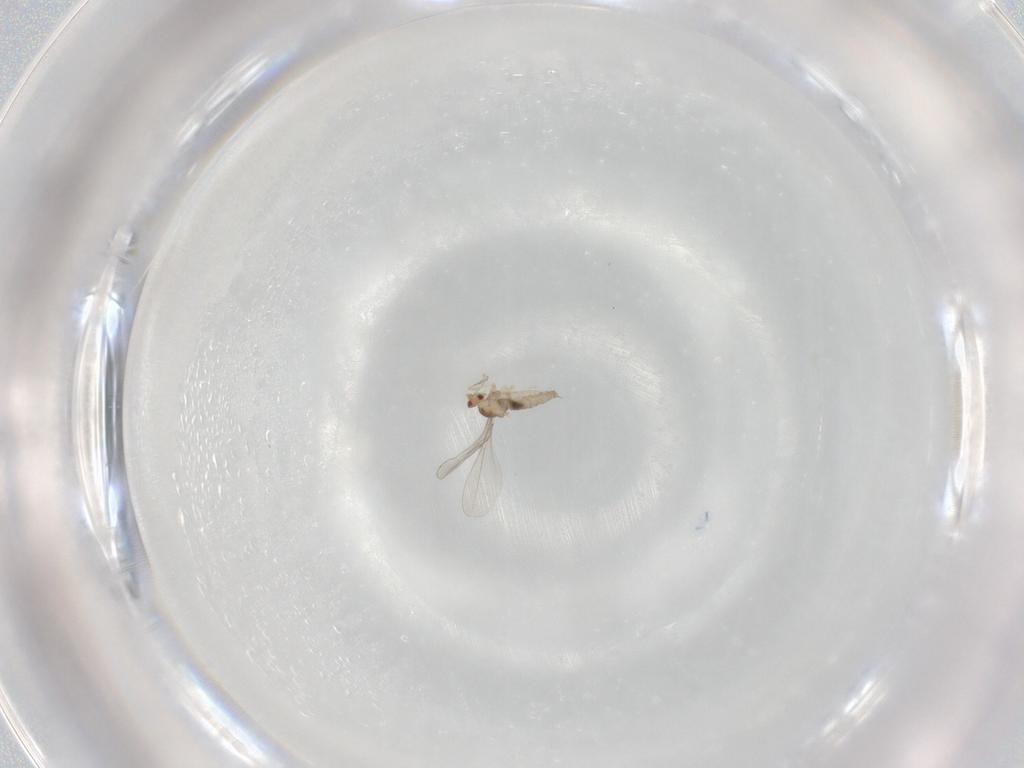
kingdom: Animalia
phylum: Arthropoda
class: Insecta
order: Diptera
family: Cecidomyiidae
